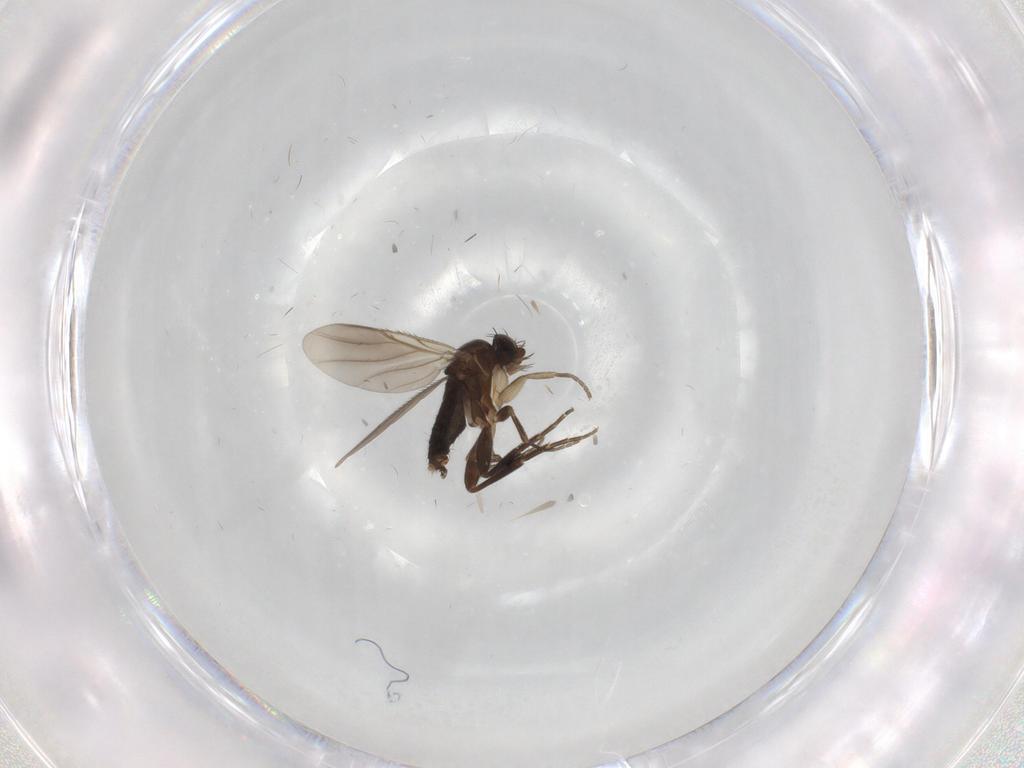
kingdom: Animalia
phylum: Arthropoda
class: Insecta
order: Diptera
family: Phoridae
